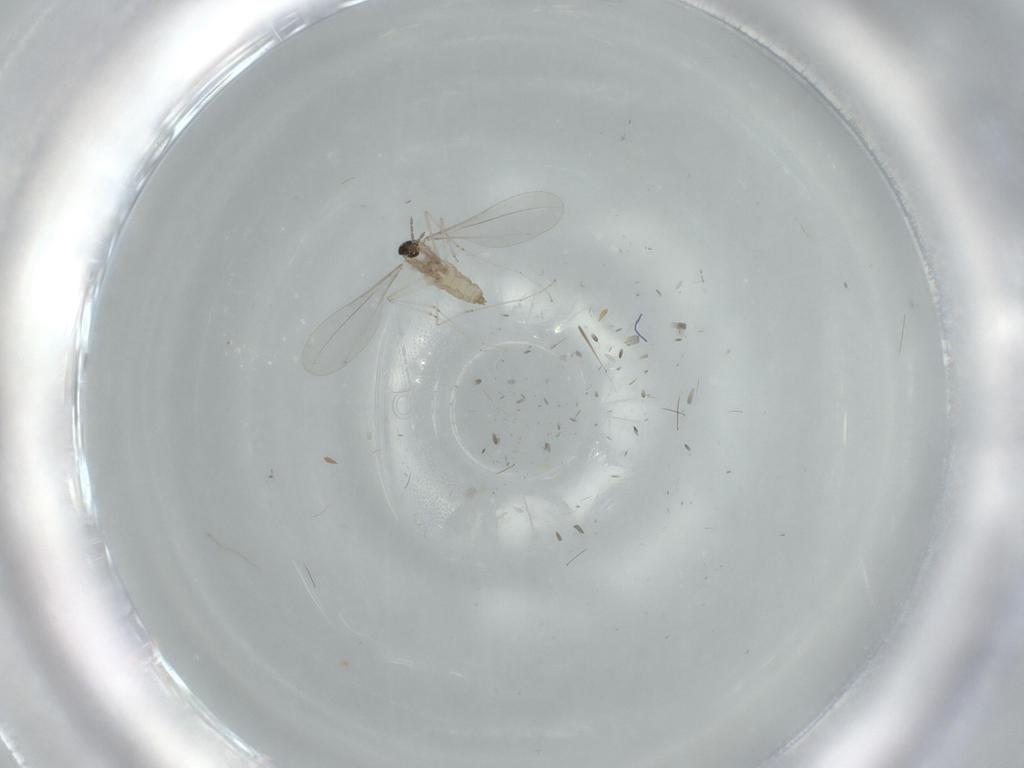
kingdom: Animalia
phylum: Arthropoda
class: Insecta
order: Diptera
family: Cecidomyiidae
